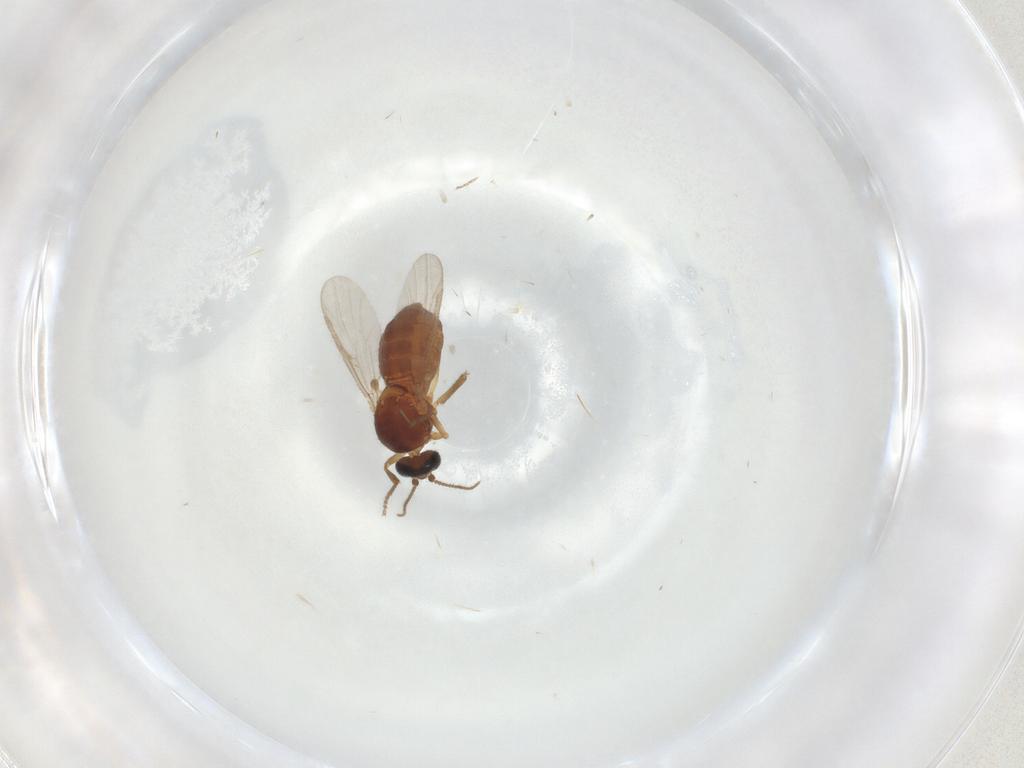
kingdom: Animalia
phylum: Arthropoda
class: Insecta
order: Diptera
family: Ceratopogonidae
